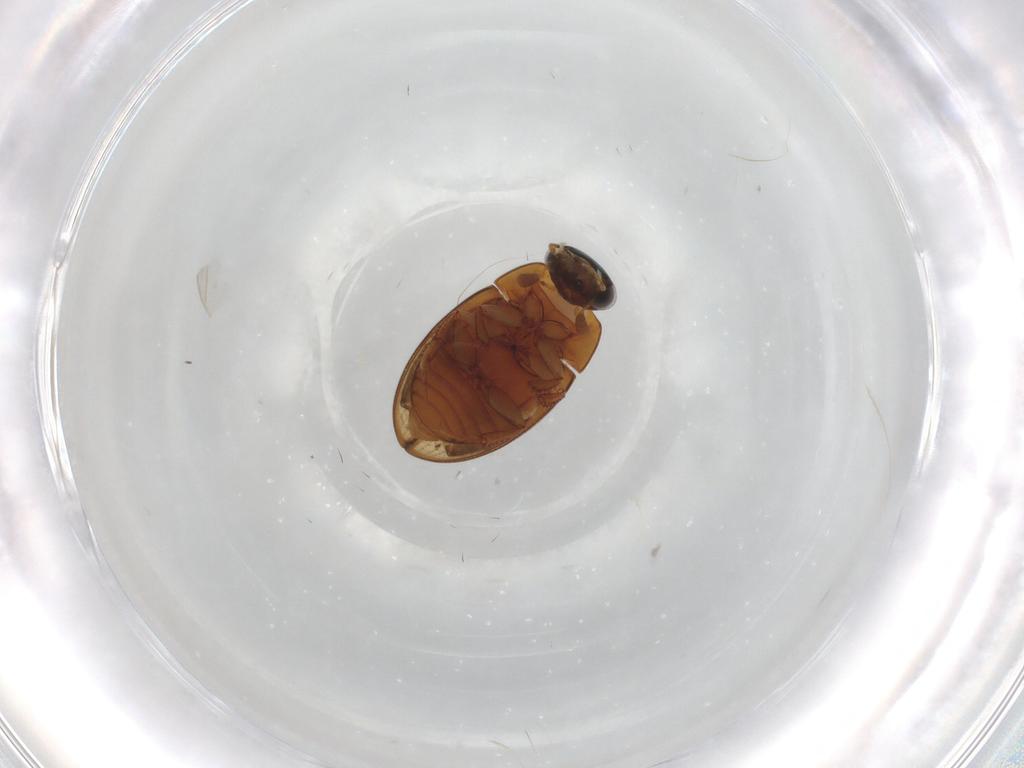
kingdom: Animalia
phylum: Arthropoda
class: Insecta
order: Coleoptera
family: Hydrophilidae
